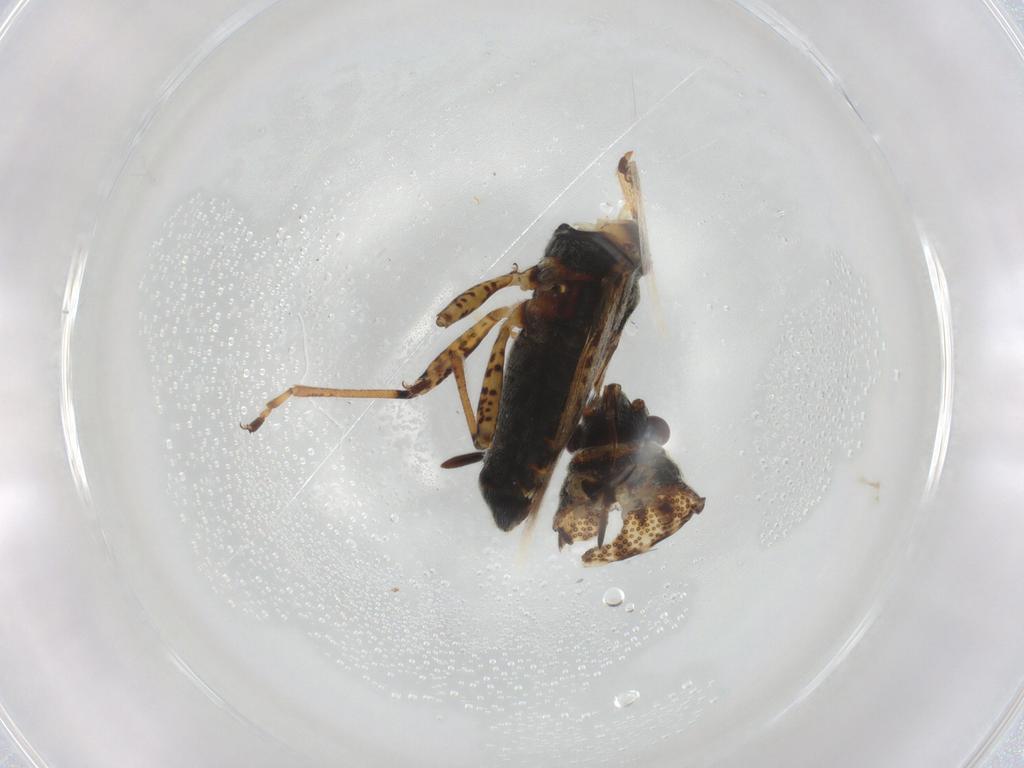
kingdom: Animalia
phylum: Arthropoda
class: Insecta
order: Hemiptera
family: Lygaeidae
